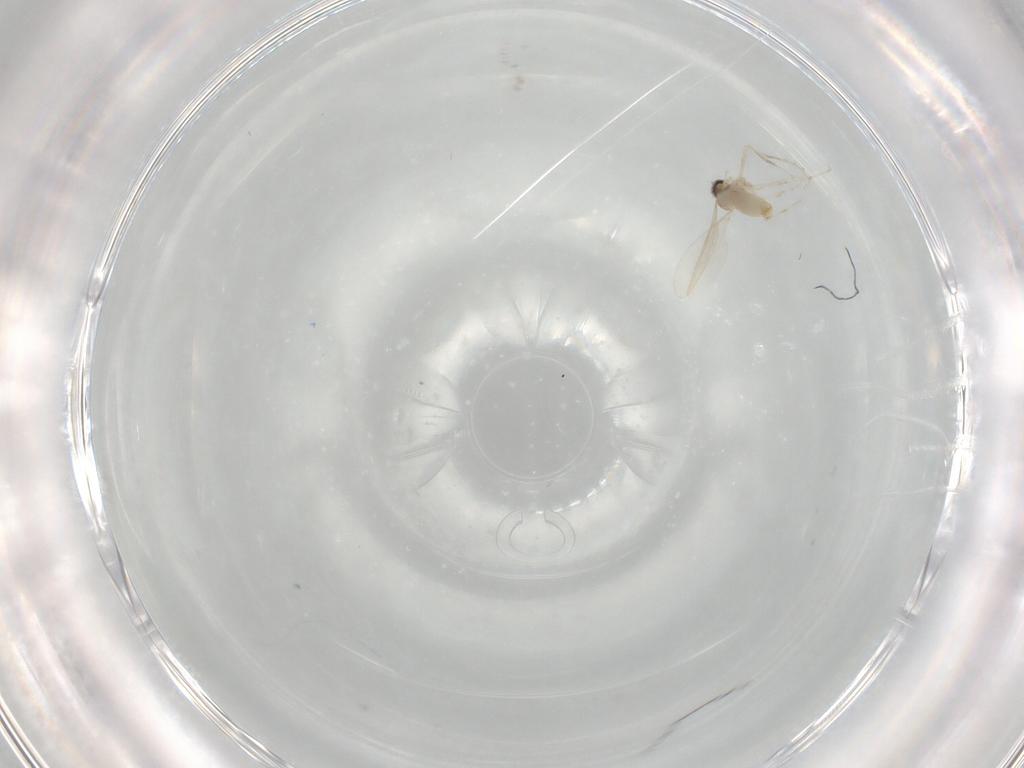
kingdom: Animalia
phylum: Arthropoda
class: Insecta
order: Diptera
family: Cecidomyiidae
